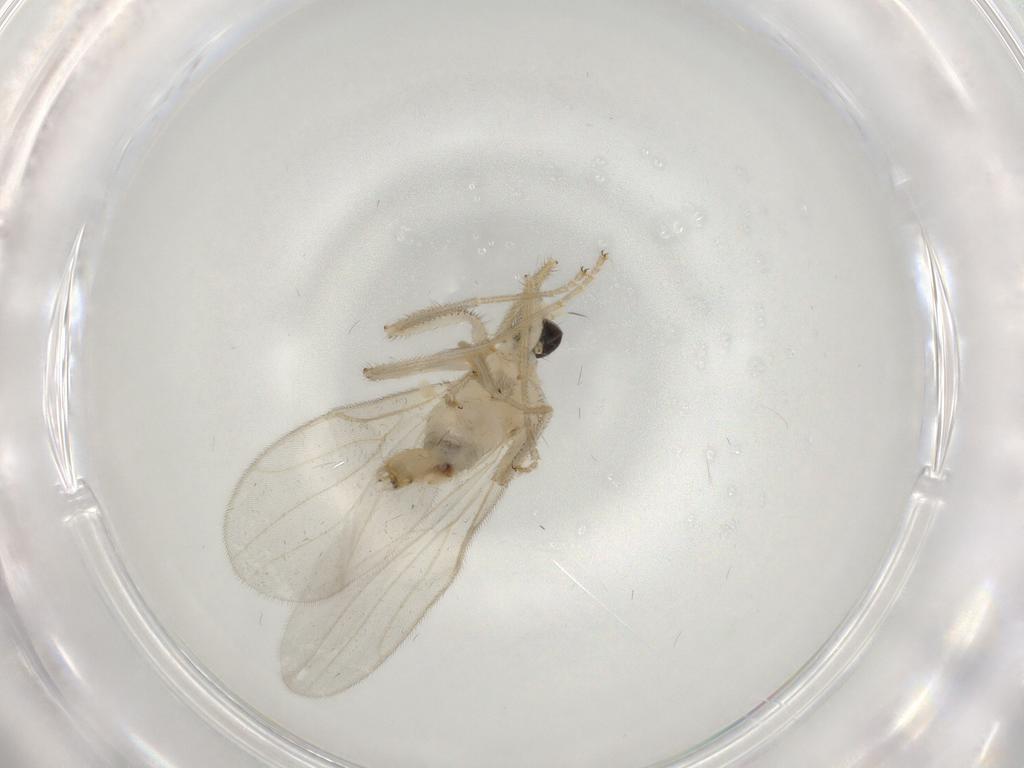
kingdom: Animalia
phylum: Arthropoda
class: Insecta
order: Diptera
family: Hybotidae
